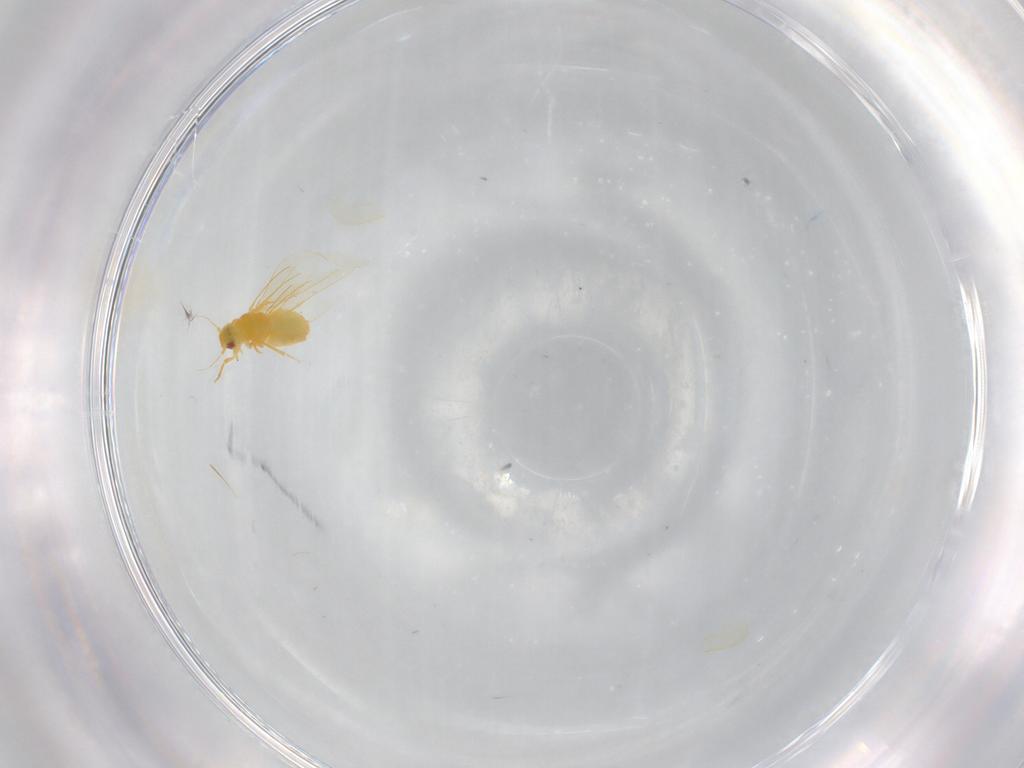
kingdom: Animalia
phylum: Arthropoda
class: Insecta
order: Hemiptera
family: Aleyrodidae
